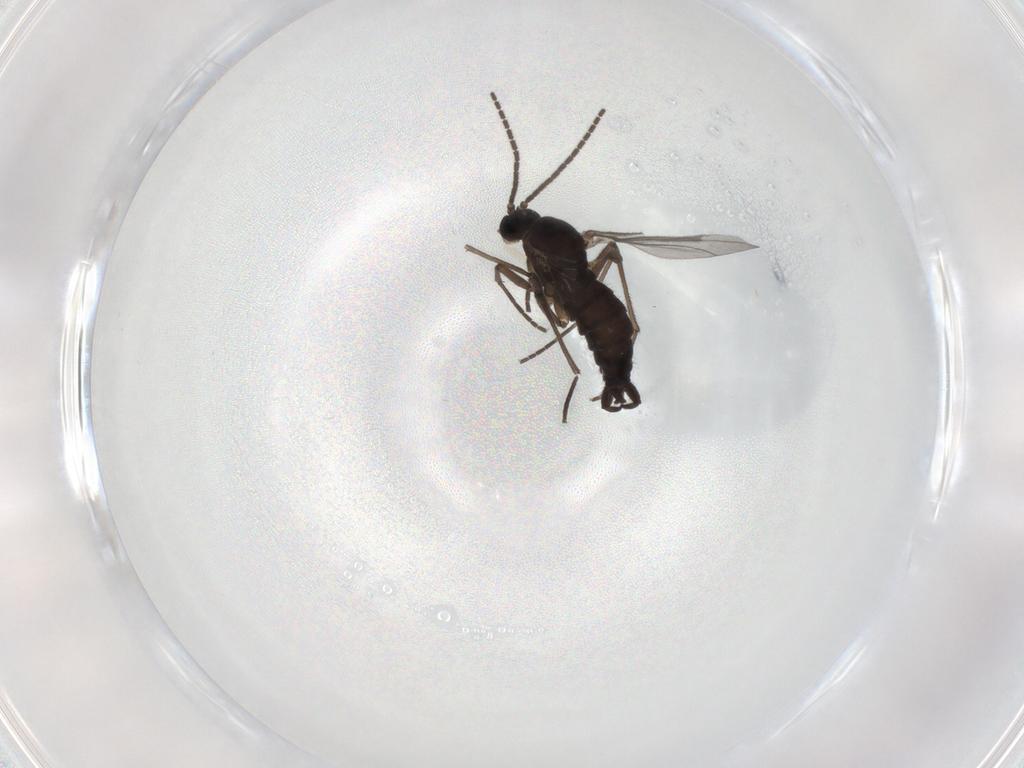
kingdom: Animalia
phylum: Arthropoda
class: Insecta
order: Diptera
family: Sciaridae
